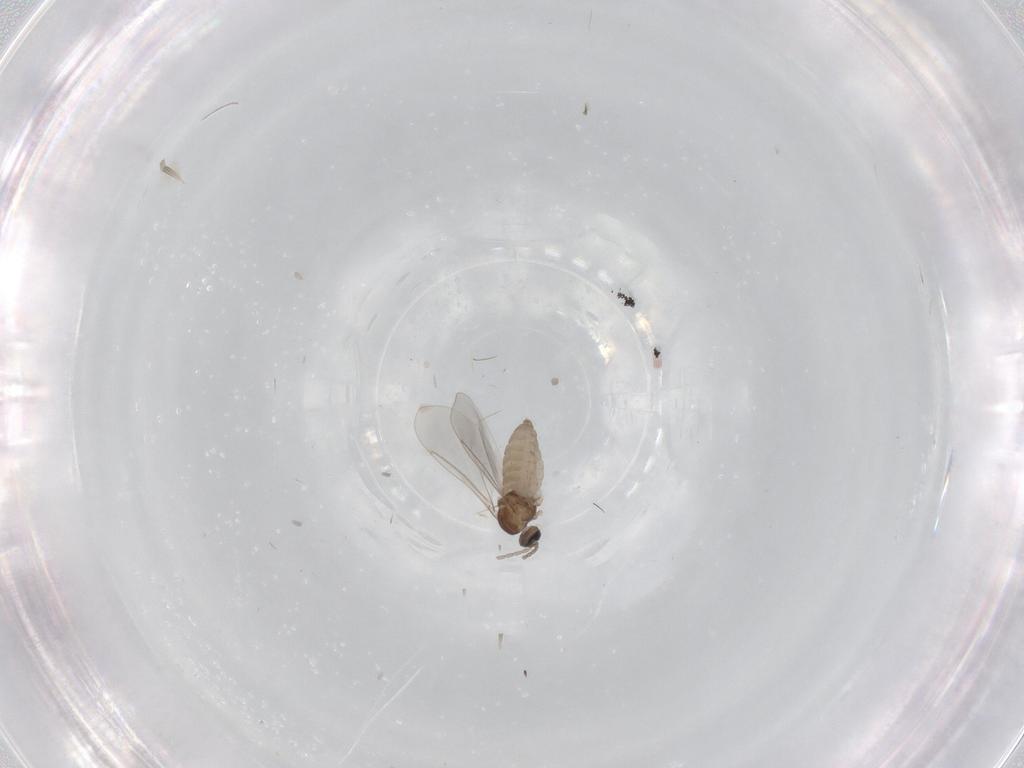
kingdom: Animalia
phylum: Arthropoda
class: Insecta
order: Diptera
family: Cecidomyiidae
